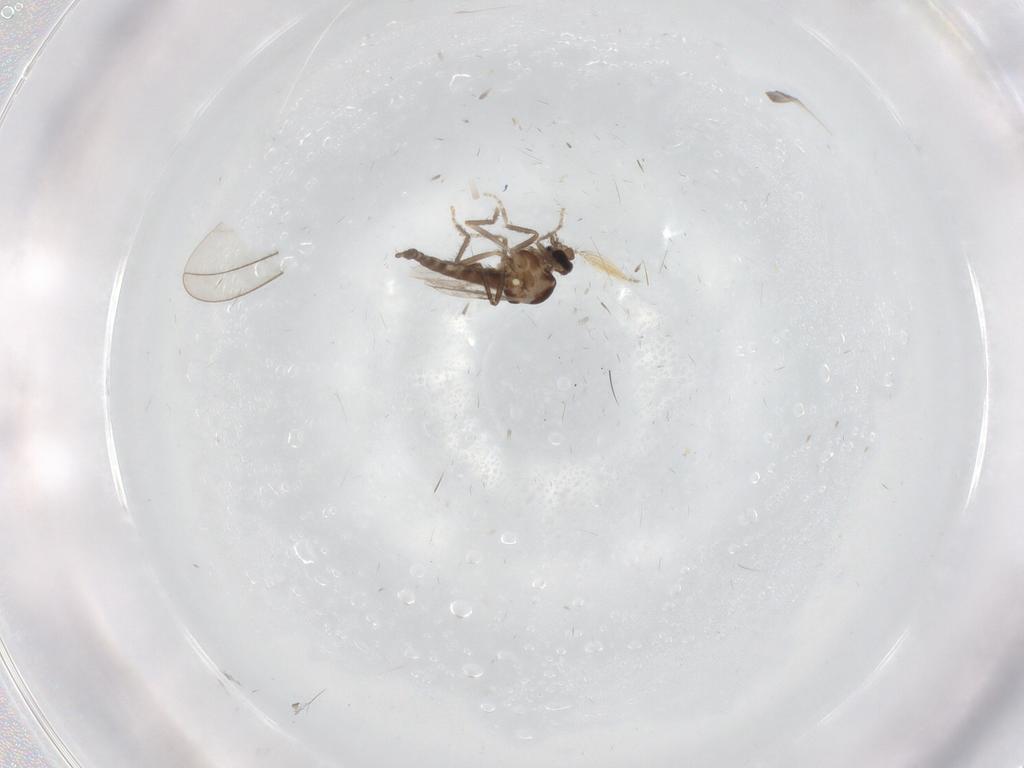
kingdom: Animalia
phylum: Arthropoda
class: Insecta
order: Diptera
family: Ceratopogonidae
